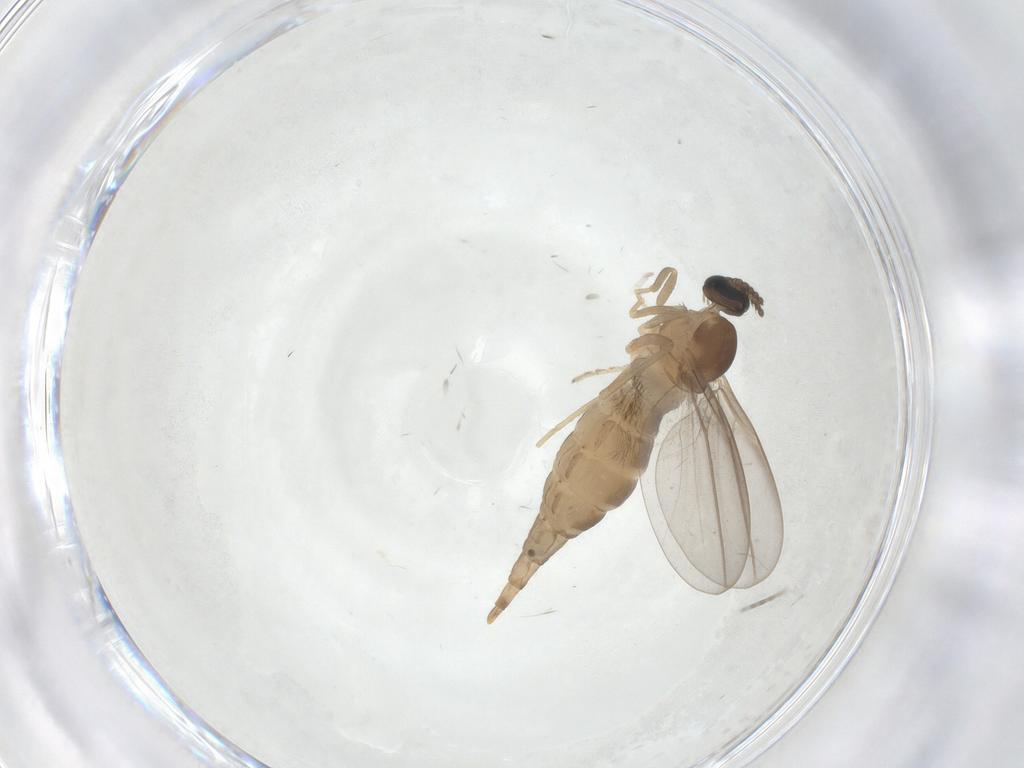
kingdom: Animalia
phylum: Arthropoda
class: Insecta
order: Diptera
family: Cecidomyiidae
